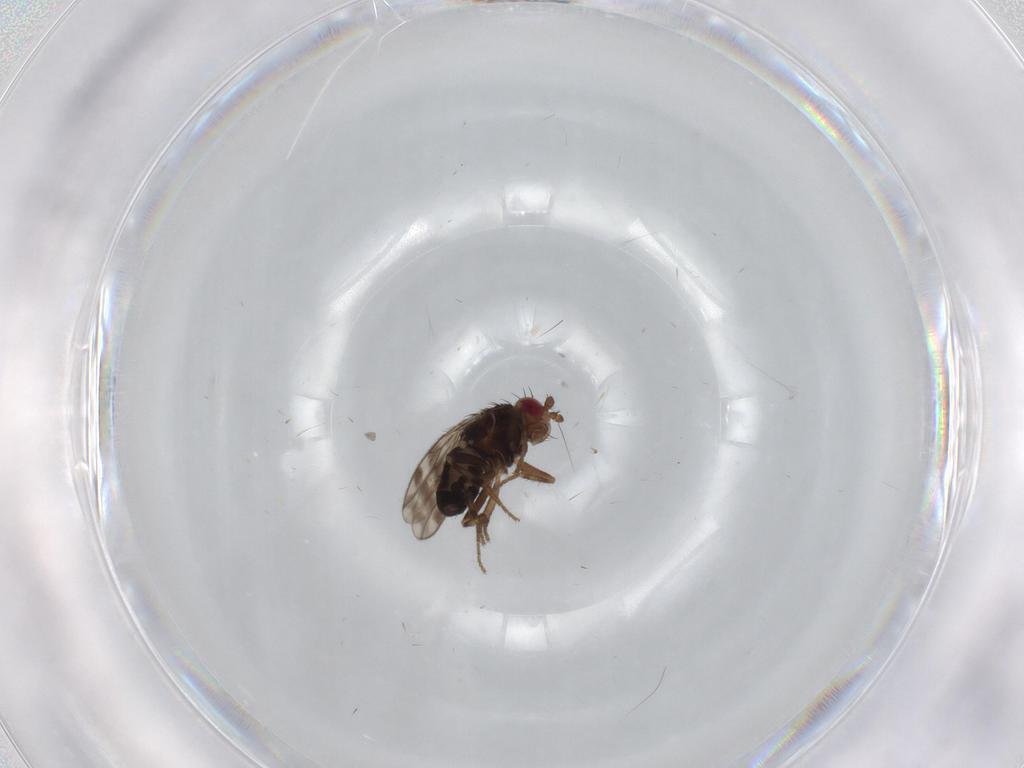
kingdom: Animalia
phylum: Arthropoda
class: Insecta
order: Diptera
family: Sphaeroceridae
